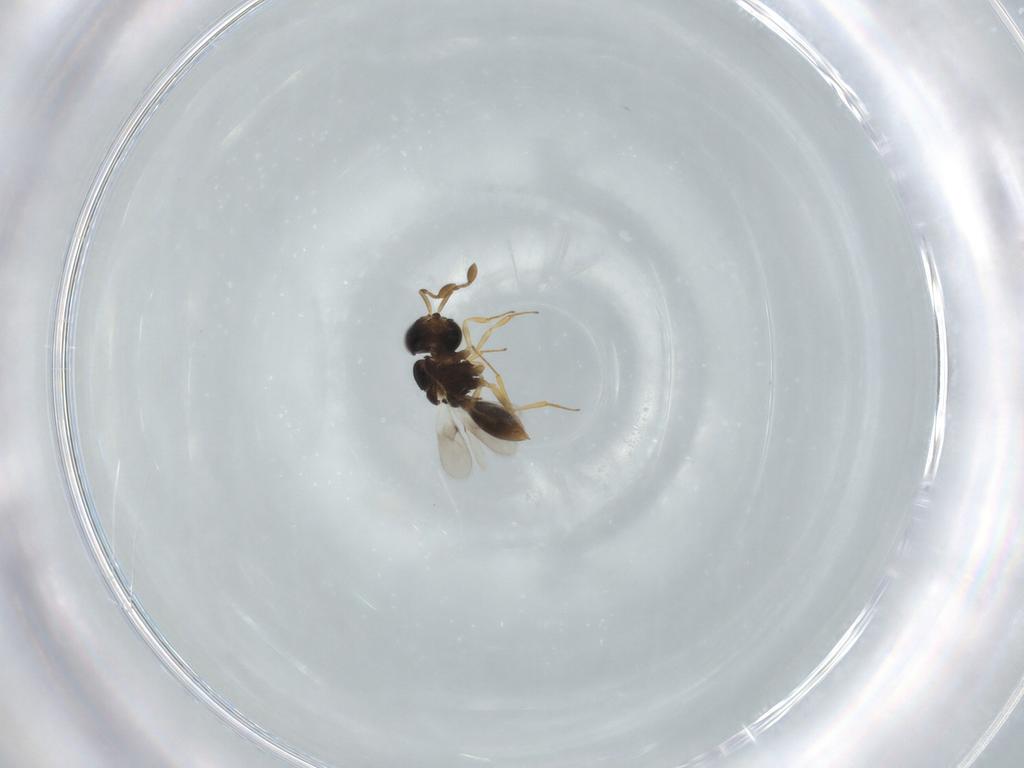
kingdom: Animalia
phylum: Arthropoda
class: Insecta
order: Hymenoptera
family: Scelionidae
